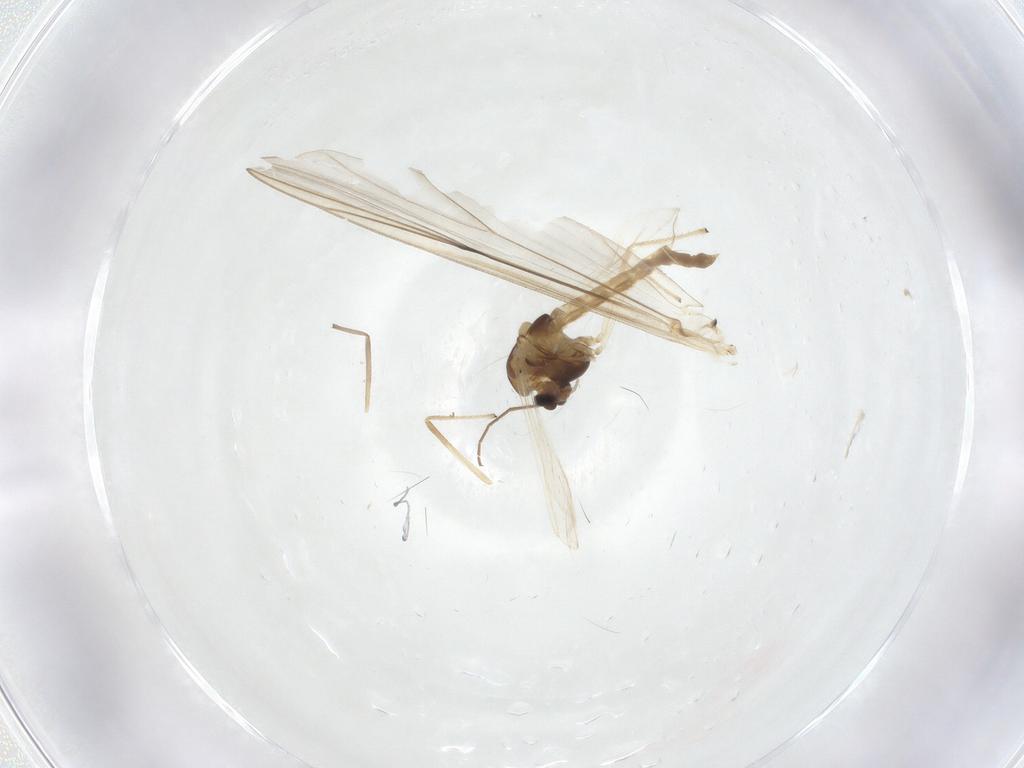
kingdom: Animalia
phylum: Arthropoda
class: Insecta
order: Diptera
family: Chironomidae
